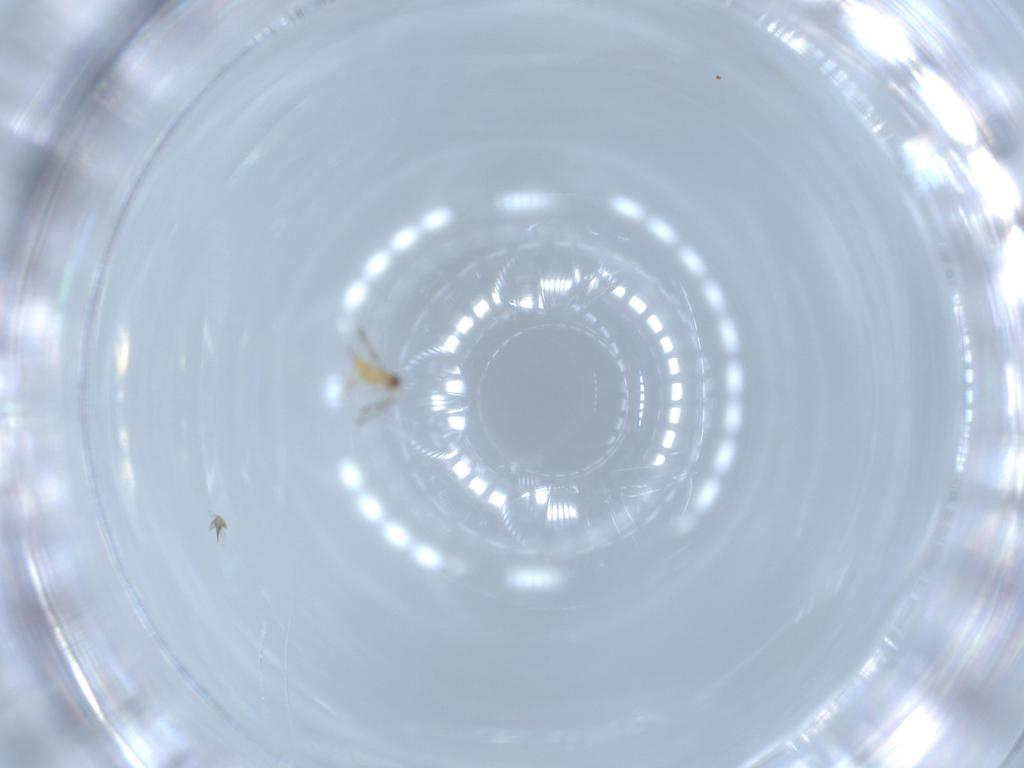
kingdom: Animalia
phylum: Arthropoda
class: Insecta
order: Hymenoptera
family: Mymaridae
